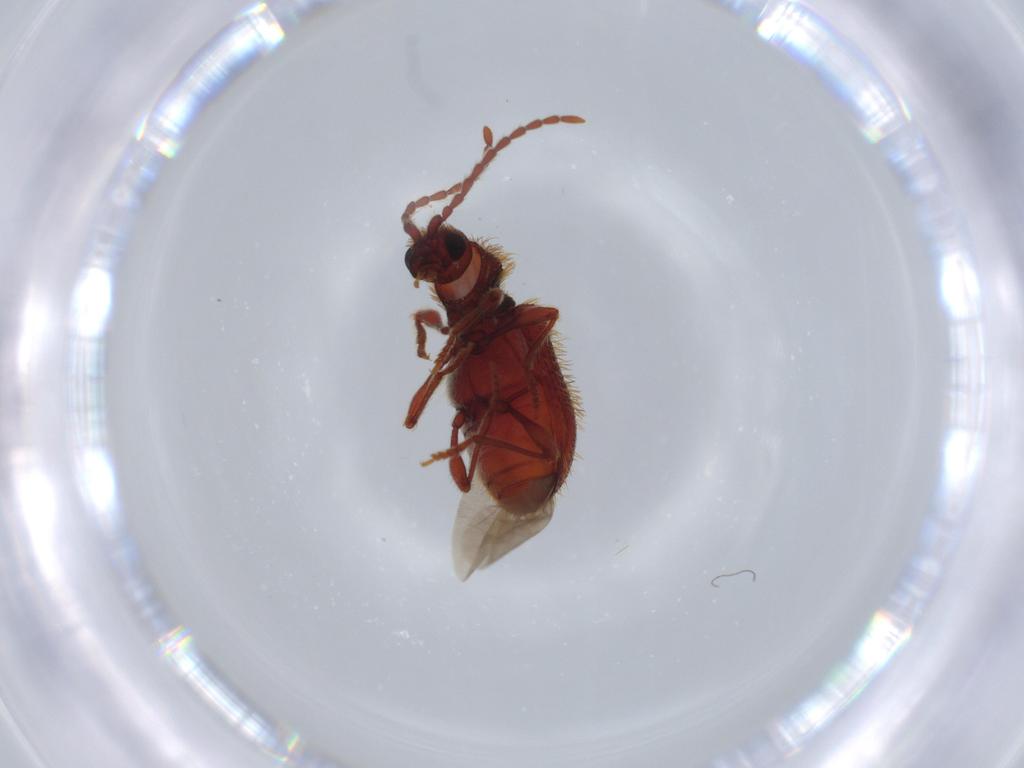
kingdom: Animalia
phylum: Arthropoda
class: Insecta
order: Coleoptera
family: Ptinidae
